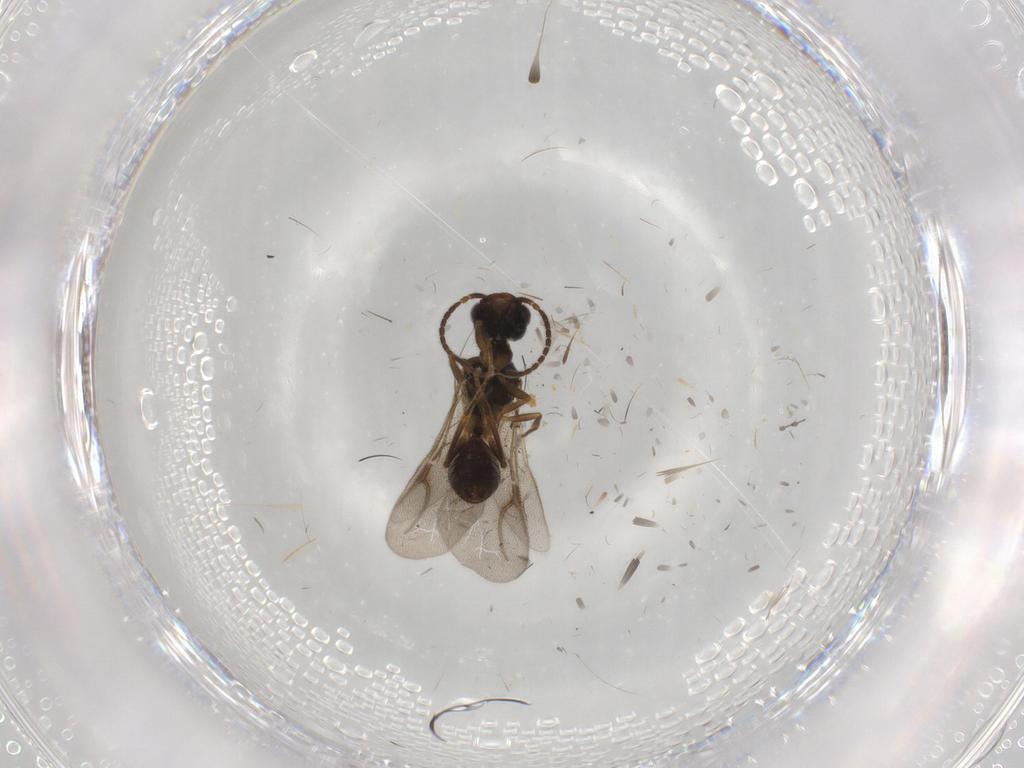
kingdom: Animalia
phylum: Arthropoda
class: Insecta
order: Hymenoptera
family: Bethylidae
